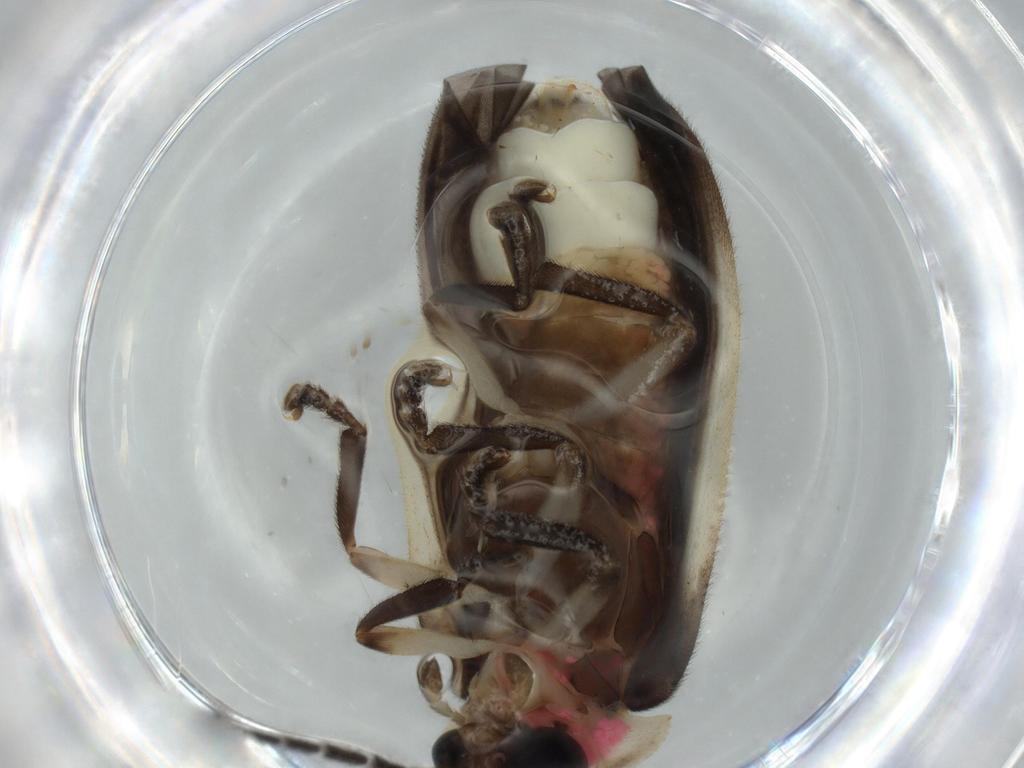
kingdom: Animalia
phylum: Arthropoda
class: Insecta
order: Coleoptera
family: Lampyridae
